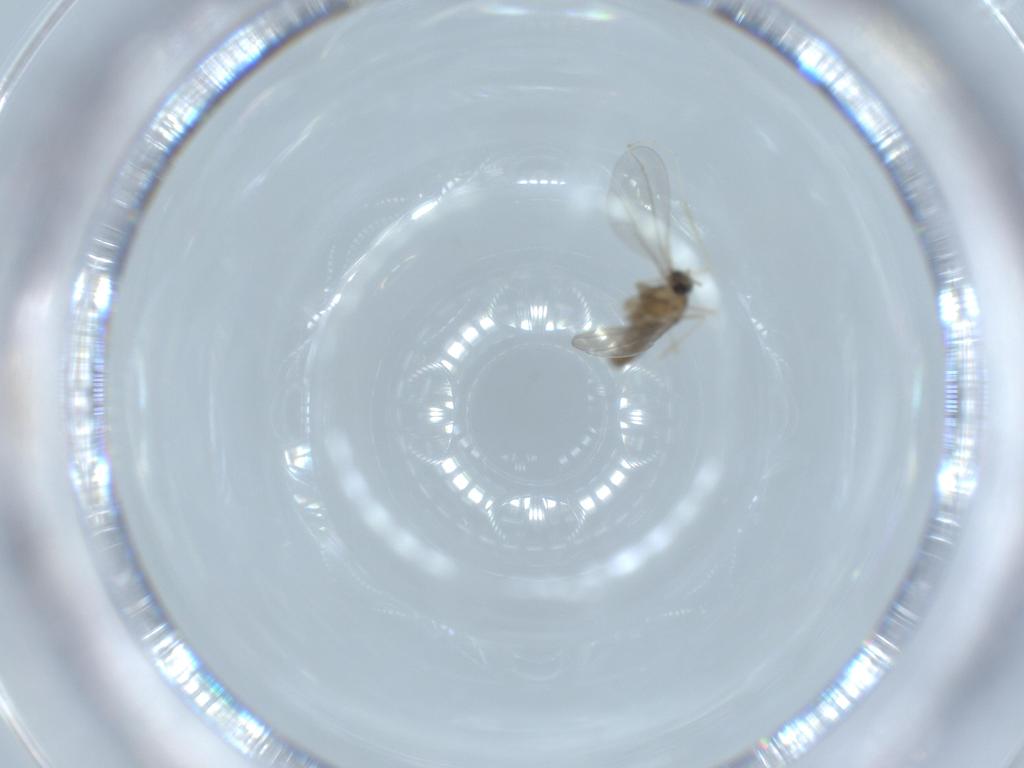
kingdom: Animalia
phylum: Arthropoda
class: Insecta
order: Diptera
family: Cecidomyiidae
